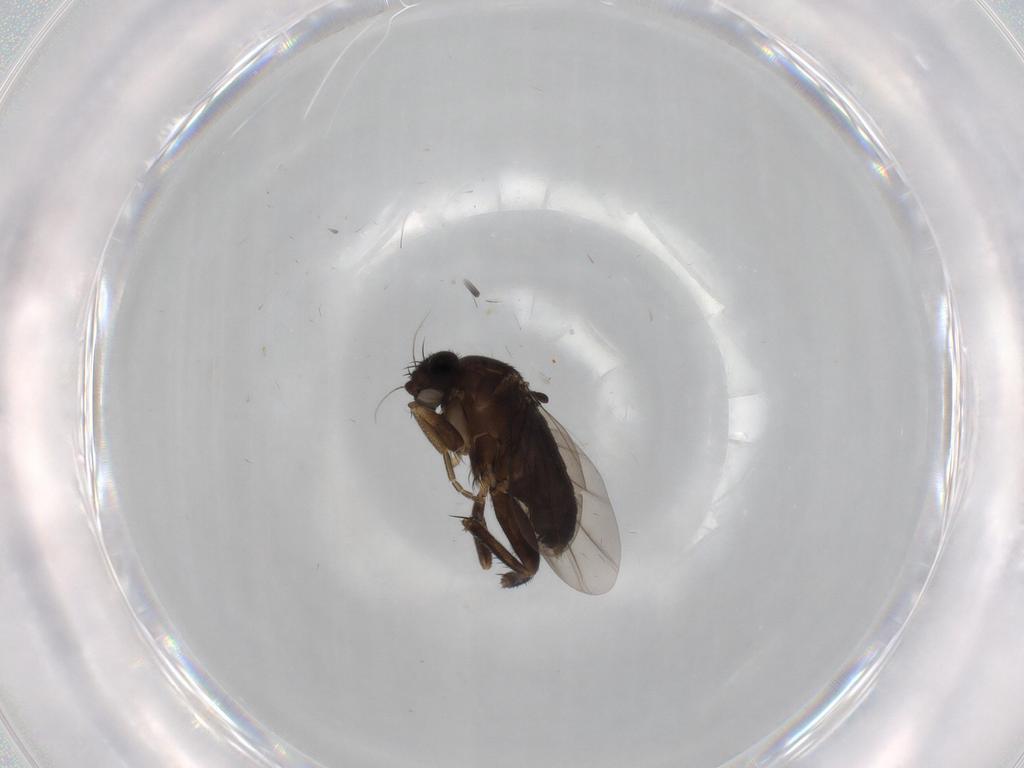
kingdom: Animalia
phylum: Arthropoda
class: Insecta
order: Diptera
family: Phoridae
